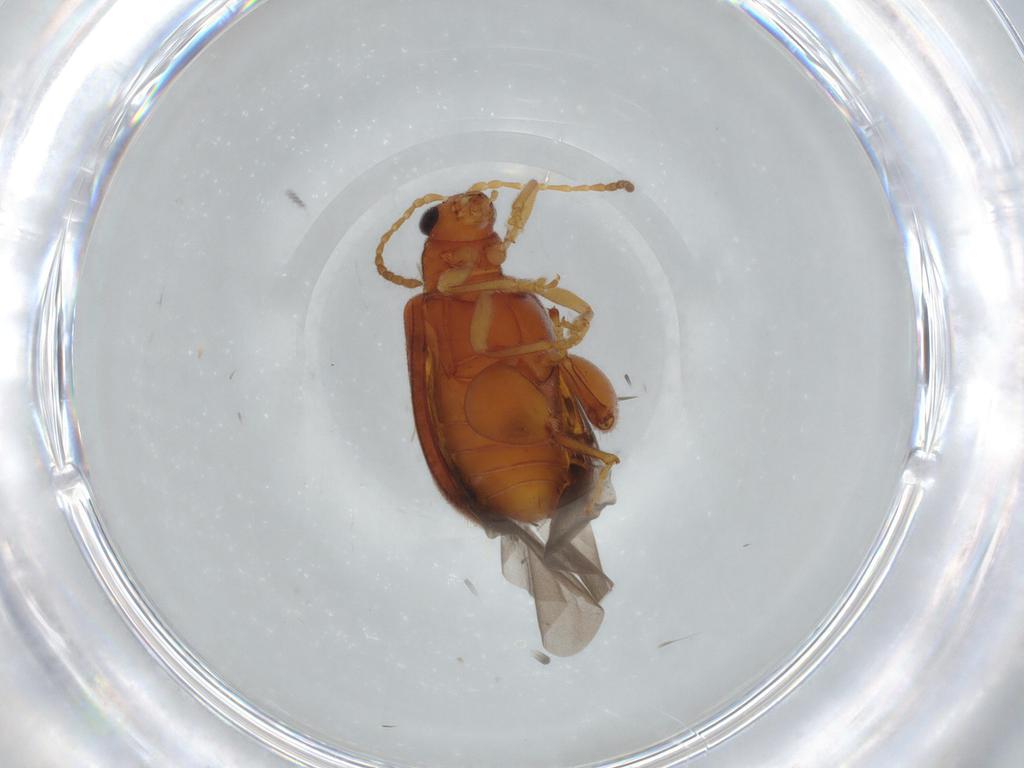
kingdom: Animalia
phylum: Arthropoda
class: Insecta
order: Coleoptera
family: Chrysomelidae
